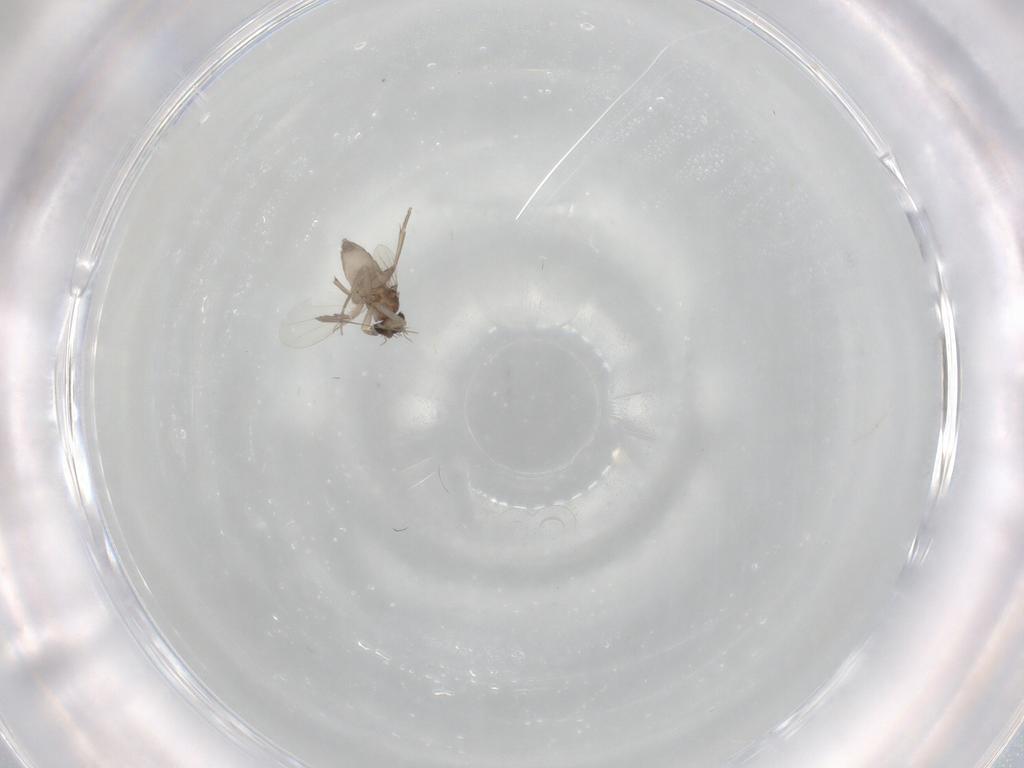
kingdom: Animalia
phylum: Arthropoda
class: Insecta
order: Diptera
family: Phoridae
